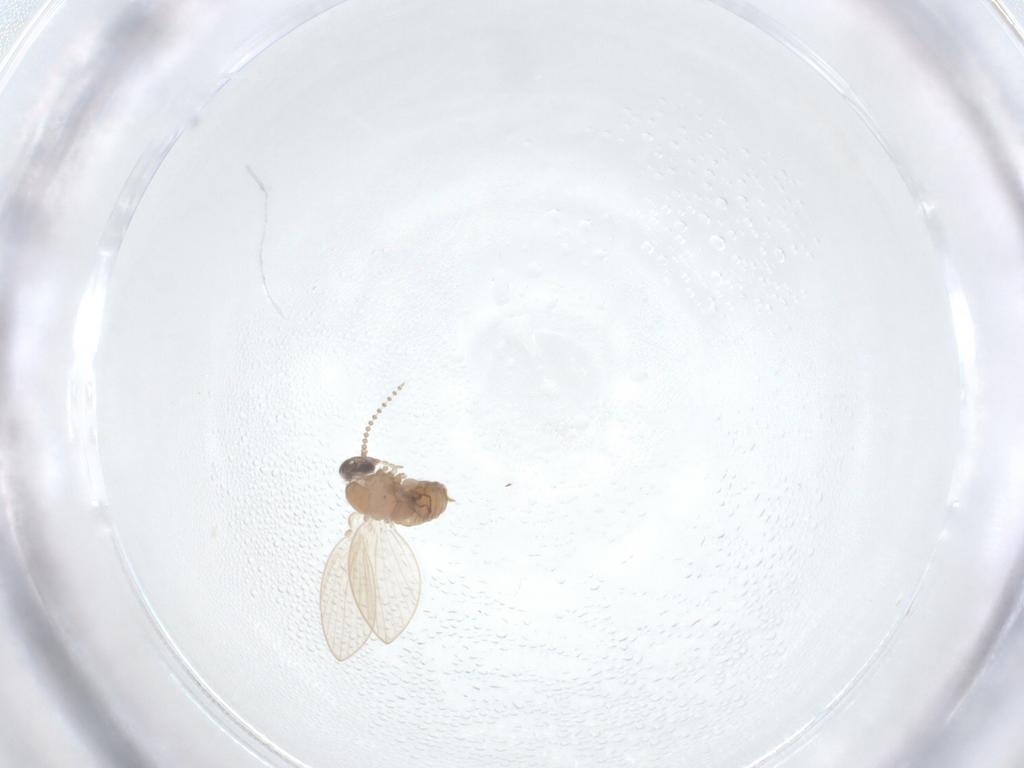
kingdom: Animalia
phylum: Arthropoda
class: Insecta
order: Diptera
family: Psychodidae
